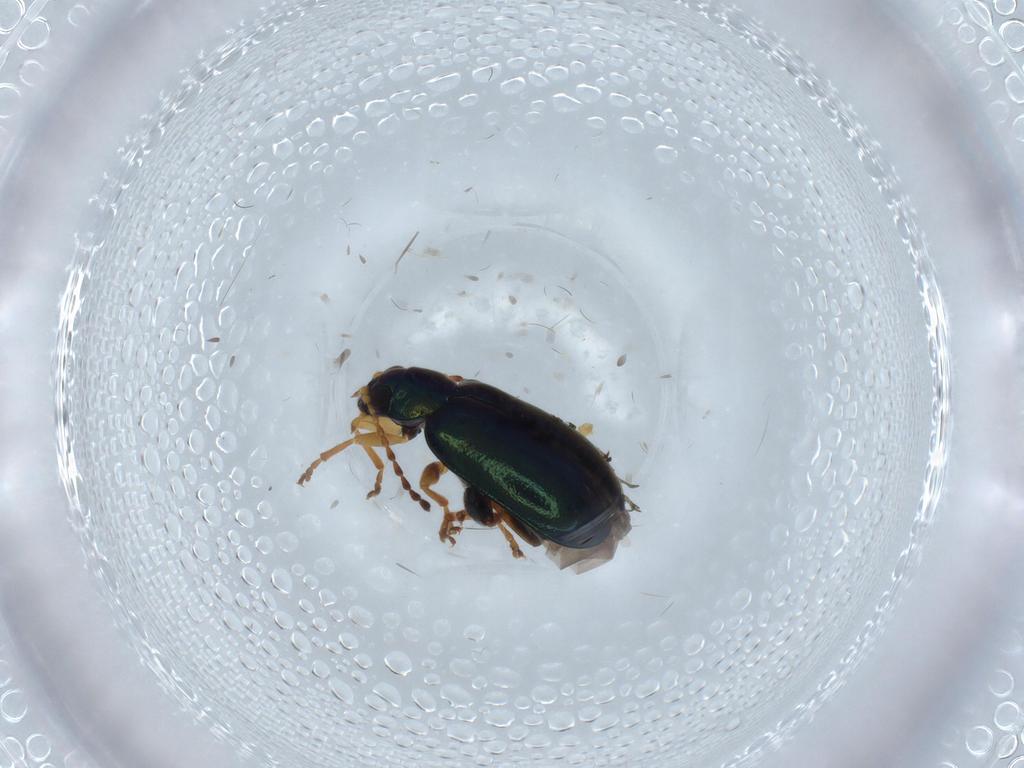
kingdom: Animalia
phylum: Arthropoda
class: Insecta
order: Coleoptera
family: Chrysomelidae
